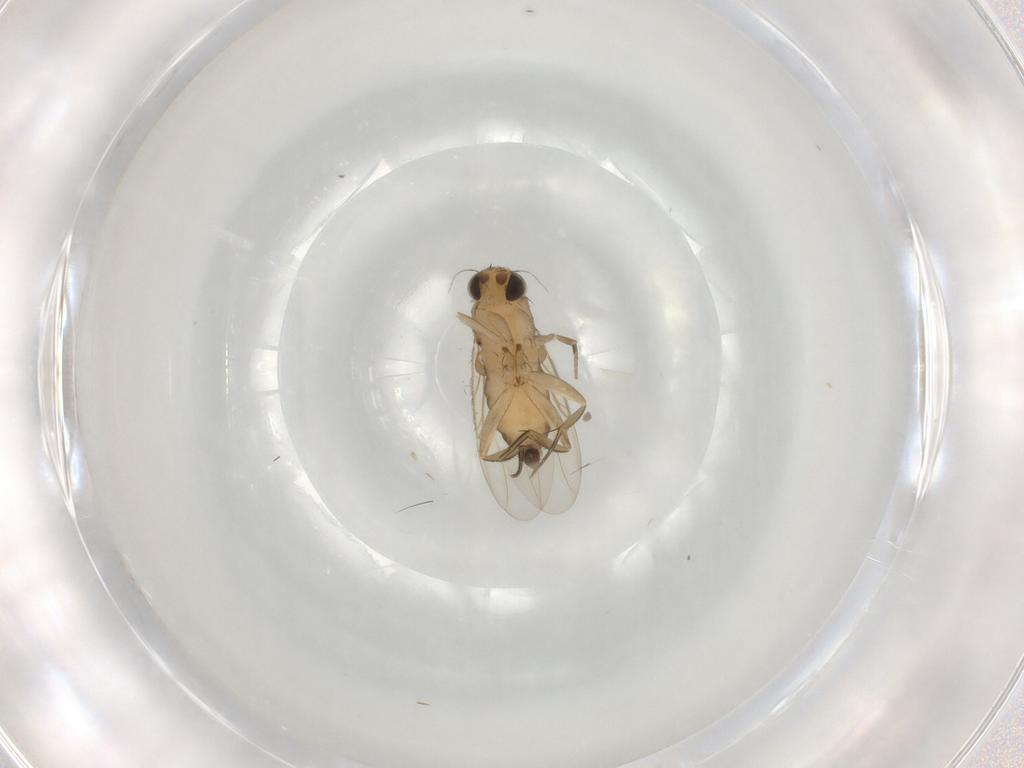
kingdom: Animalia
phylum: Arthropoda
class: Insecta
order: Diptera
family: Phoridae
